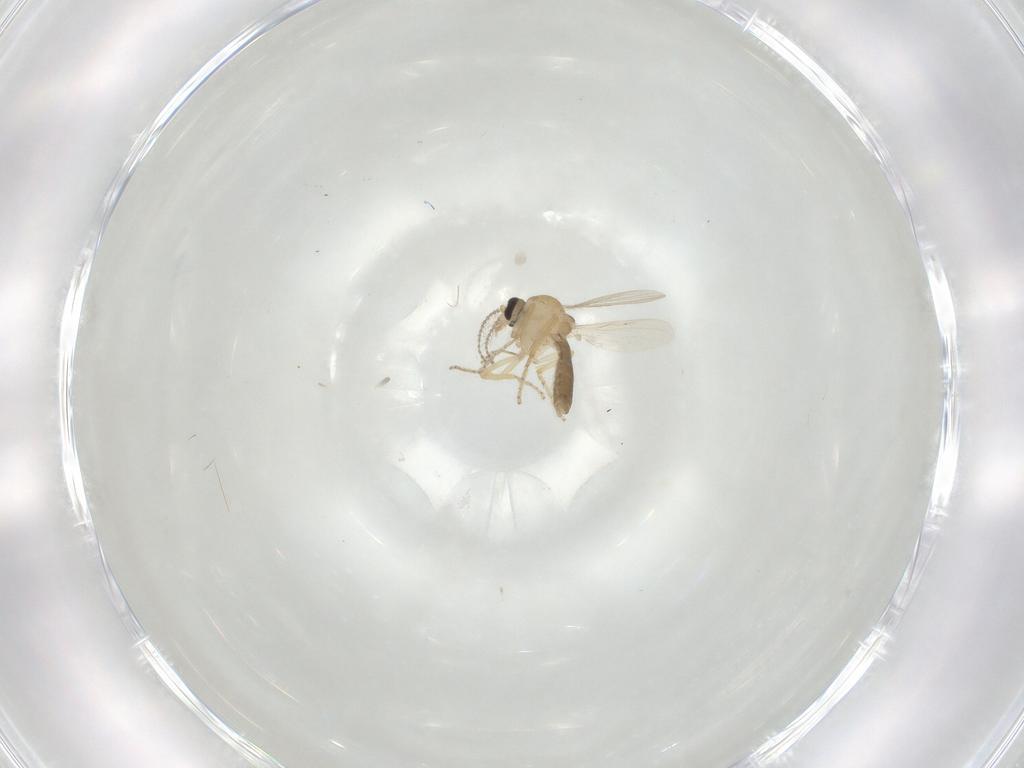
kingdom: Animalia
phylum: Arthropoda
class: Insecta
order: Diptera
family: Ceratopogonidae
